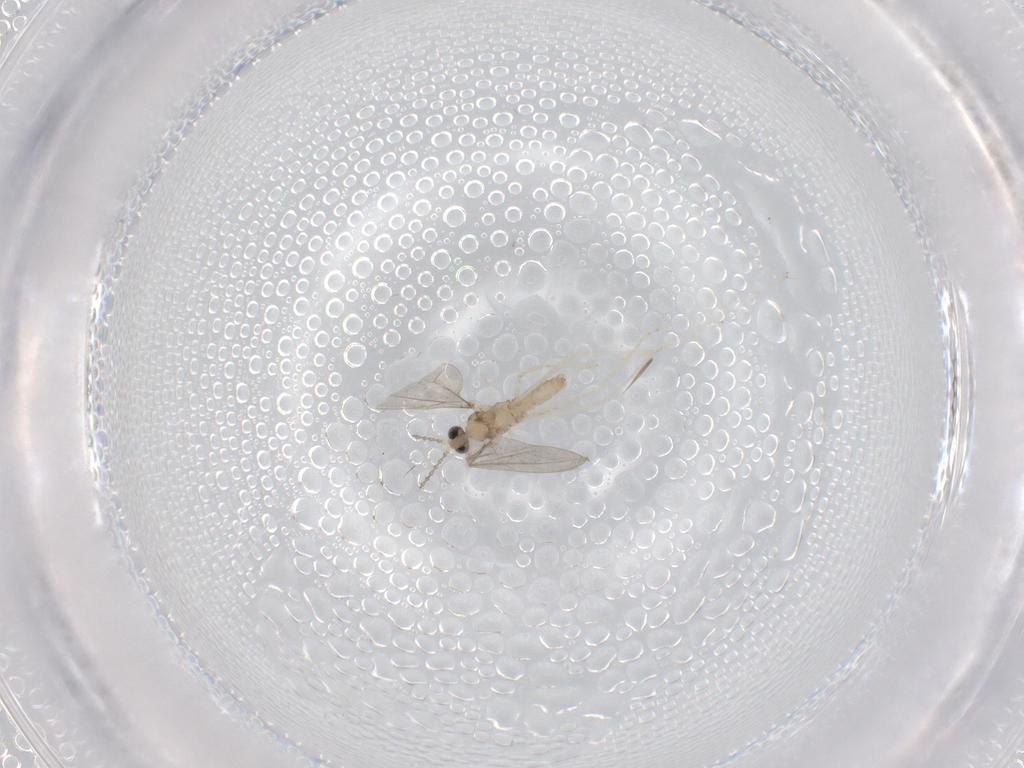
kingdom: Animalia
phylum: Arthropoda
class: Insecta
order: Diptera
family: Cecidomyiidae
